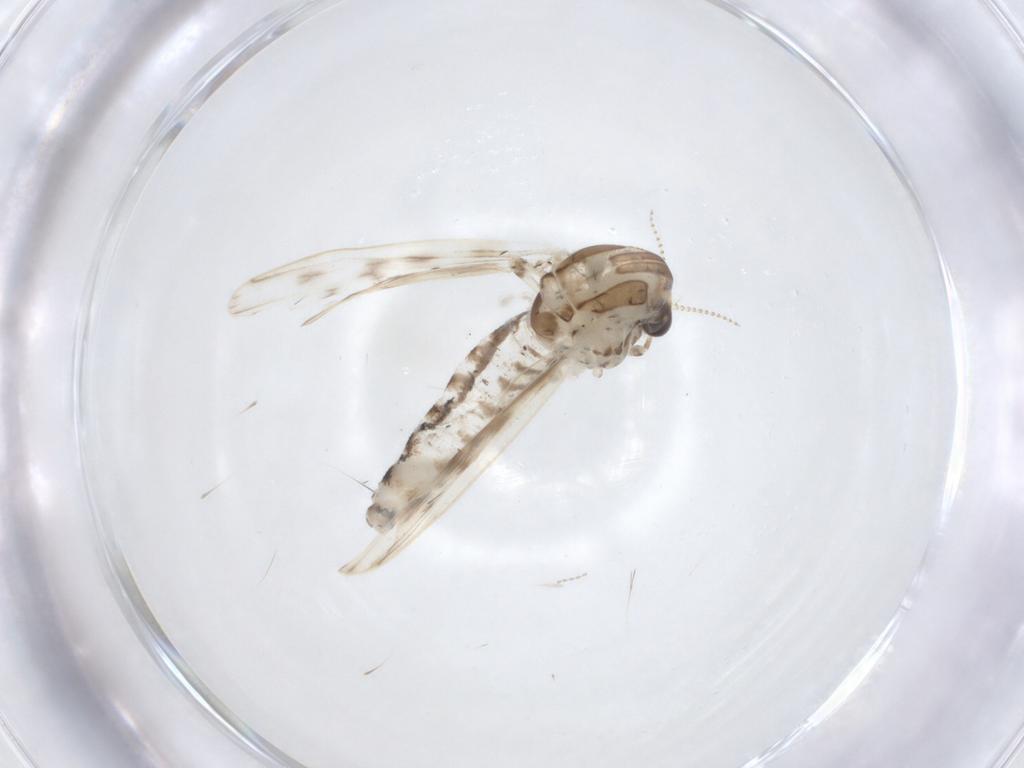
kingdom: Animalia
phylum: Arthropoda
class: Insecta
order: Diptera
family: Chaoboridae
